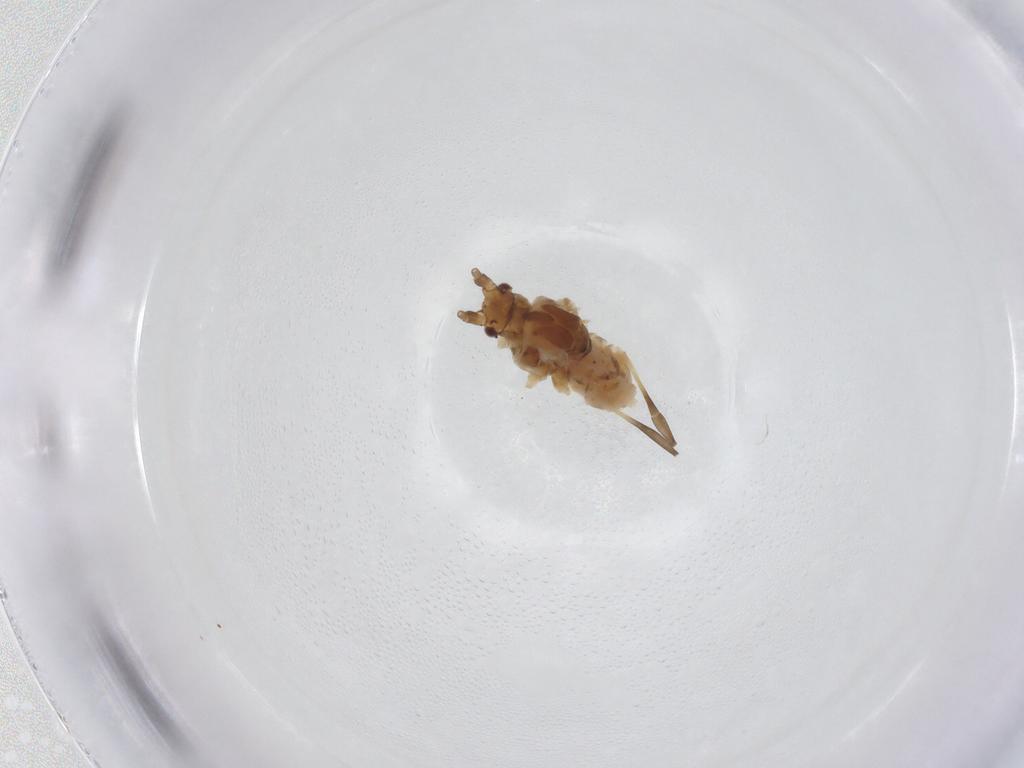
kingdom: Animalia
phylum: Arthropoda
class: Insecta
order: Hemiptera
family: Aphididae
